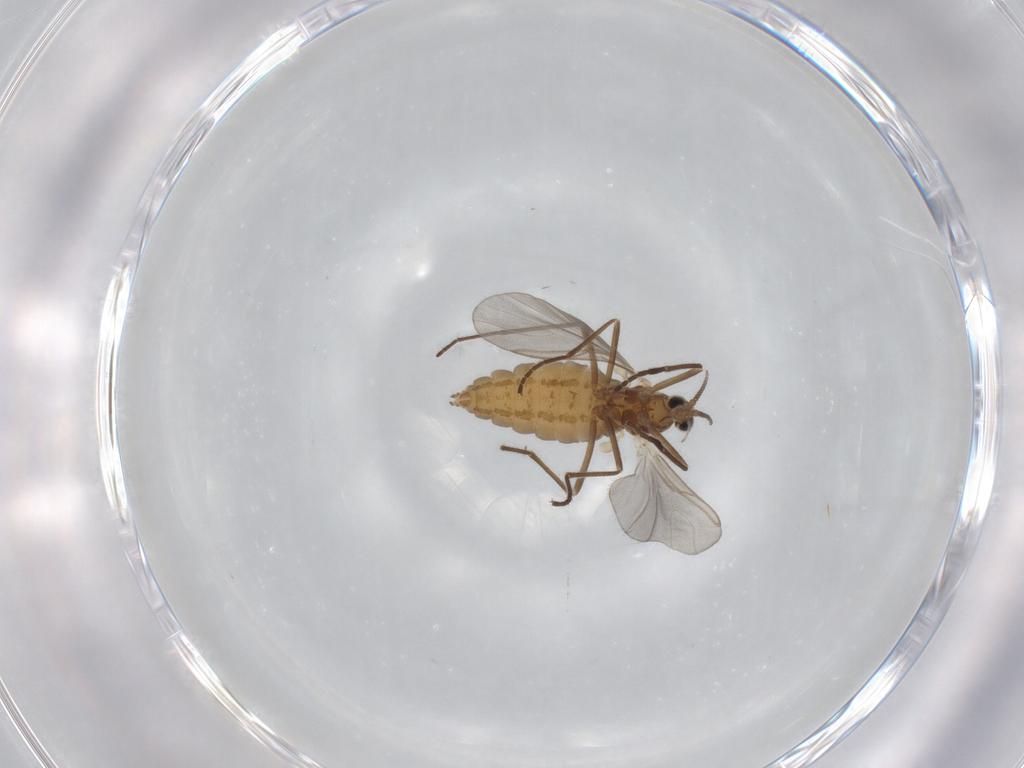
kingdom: Animalia
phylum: Arthropoda
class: Insecta
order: Diptera
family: Cecidomyiidae
